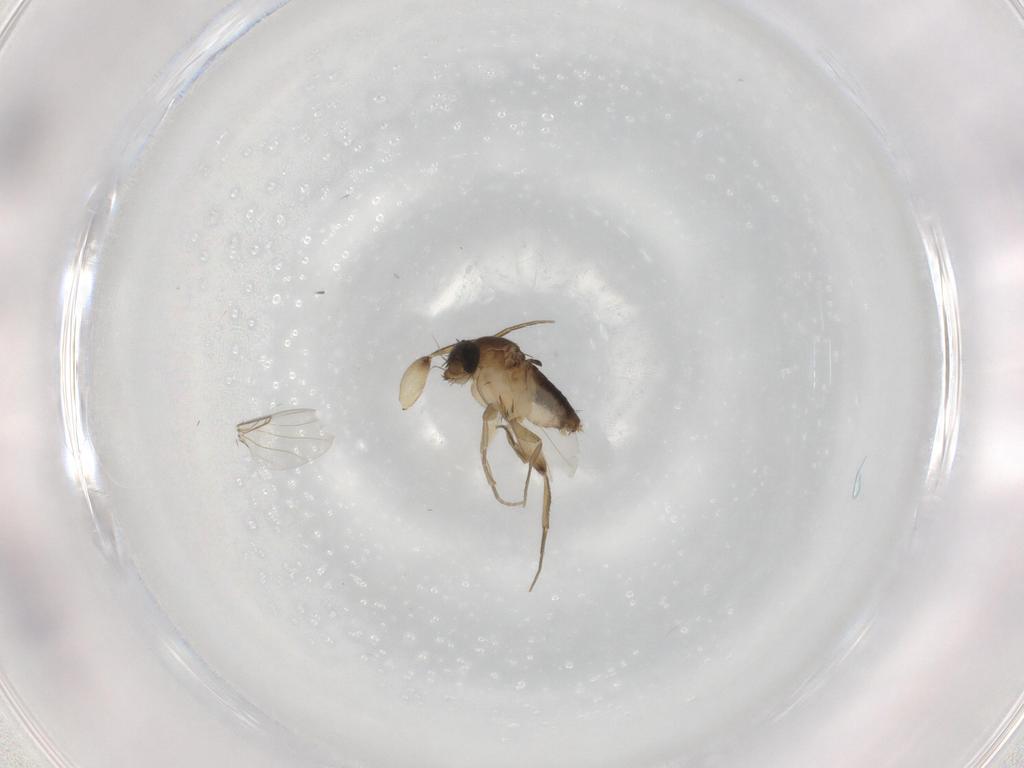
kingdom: Animalia
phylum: Arthropoda
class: Insecta
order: Diptera
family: Phoridae
